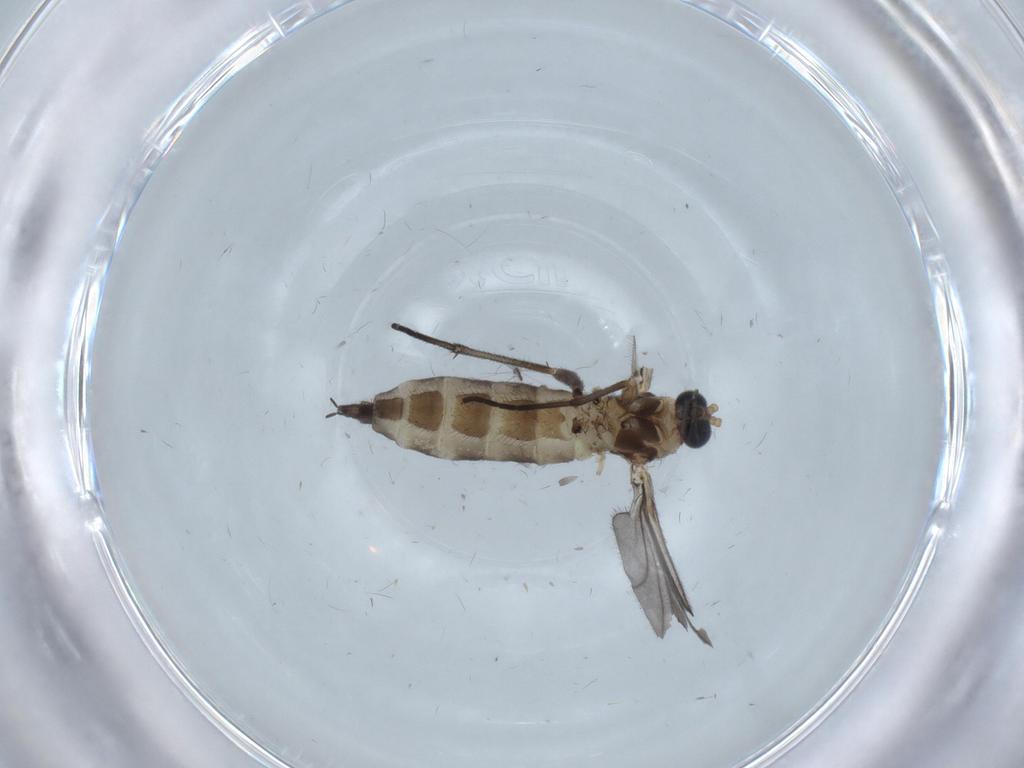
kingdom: Animalia
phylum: Arthropoda
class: Insecta
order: Diptera
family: Sciaridae
